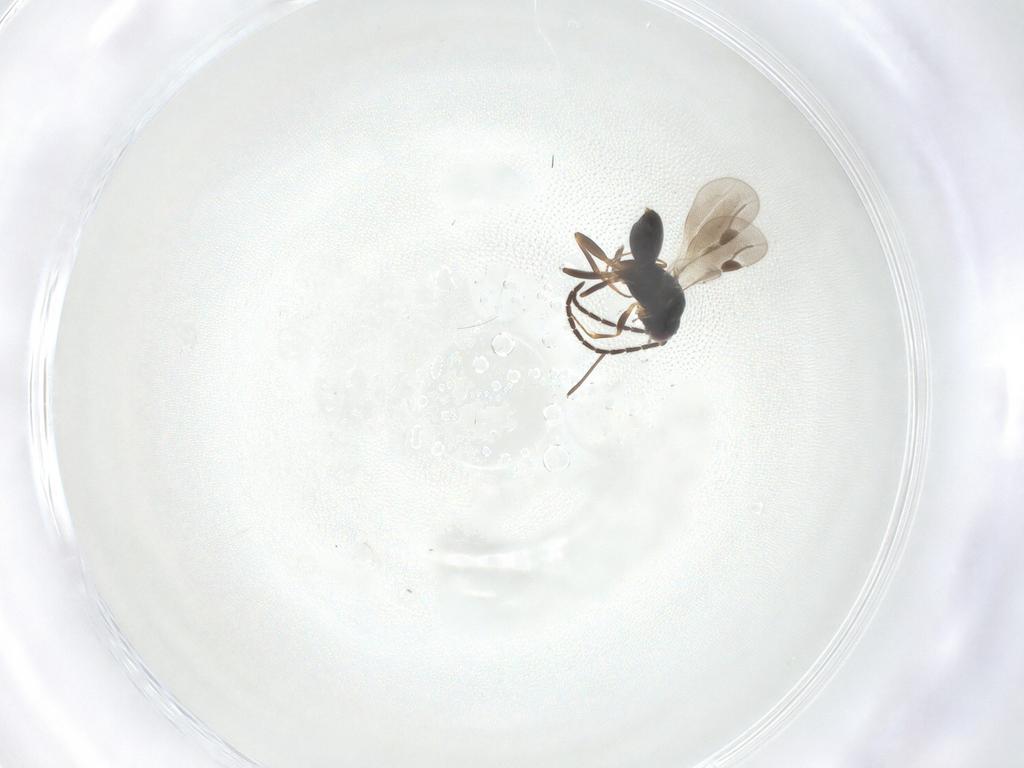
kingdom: Animalia
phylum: Arthropoda
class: Insecta
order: Hymenoptera
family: Megaspilidae
